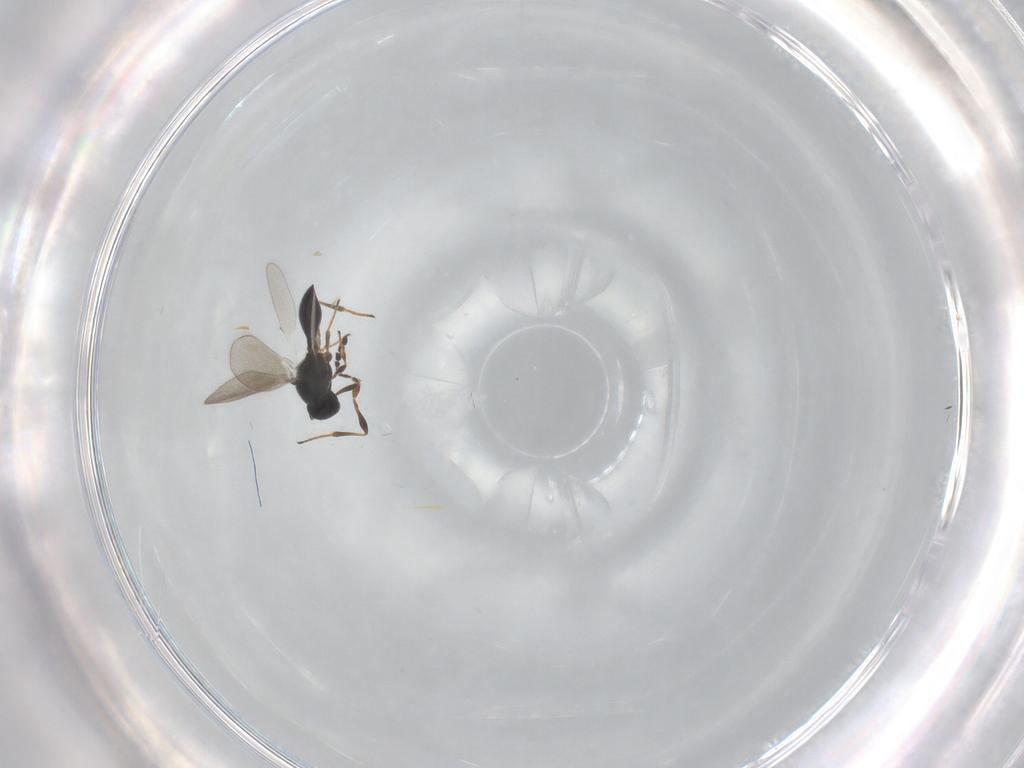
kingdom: Animalia
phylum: Arthropoda
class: Insecta
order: Hymenoptera
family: Platygastridae
